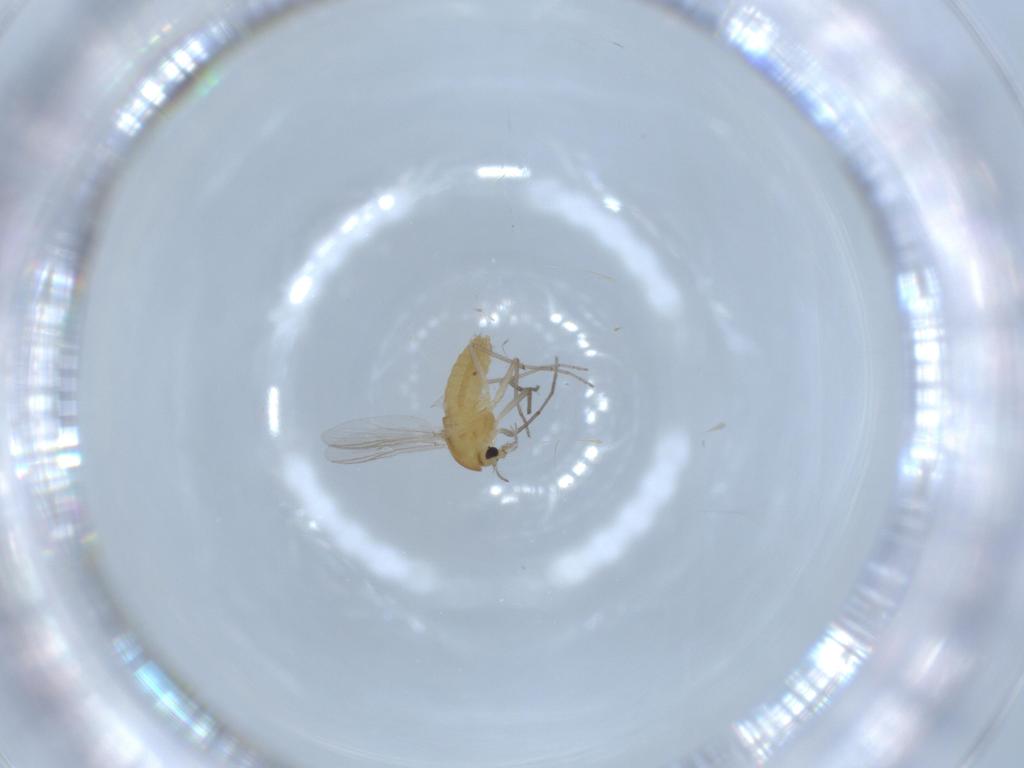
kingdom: Animalia
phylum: Arthropoda
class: Insecta
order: Diptera
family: Chironomidae
